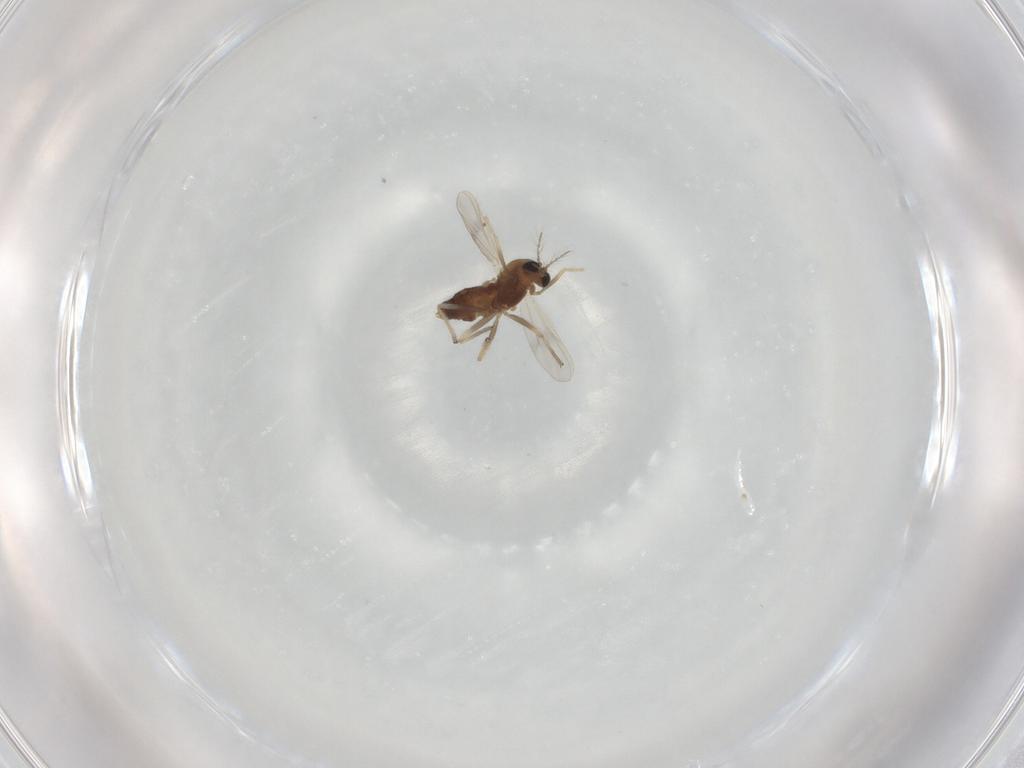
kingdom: Animalia
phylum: Arthropoda
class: Insecta
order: Diptera
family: Chironomidae
